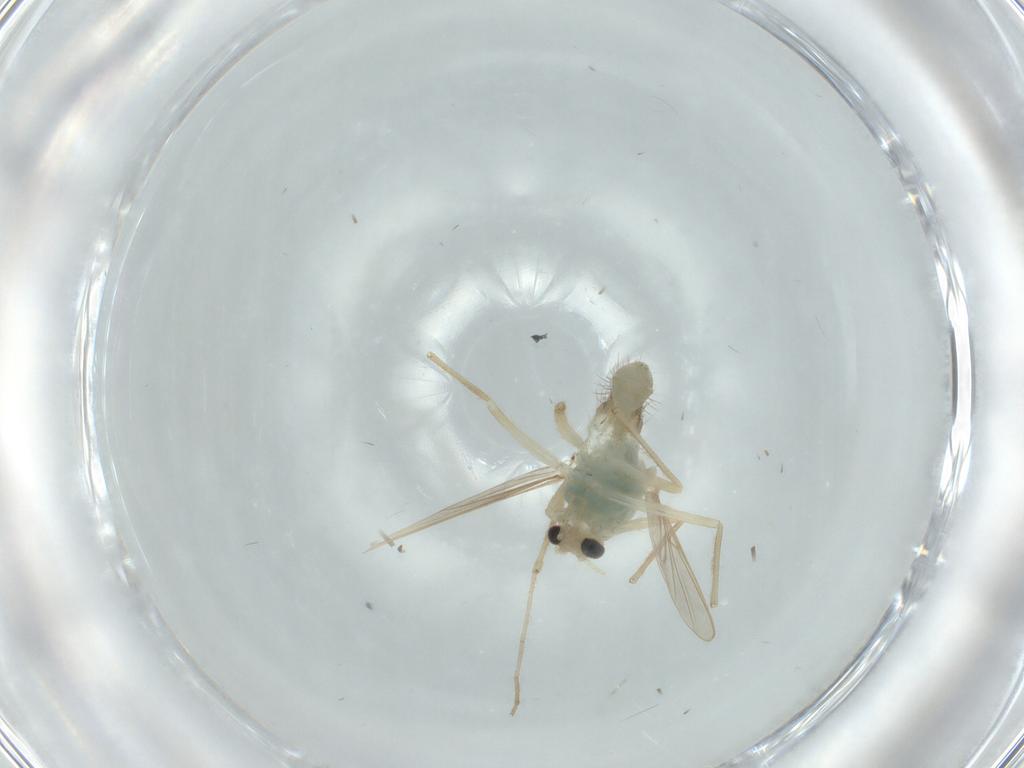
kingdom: Animalia
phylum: Arthropoda
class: Insecta
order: Diptera
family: Chironomidae
